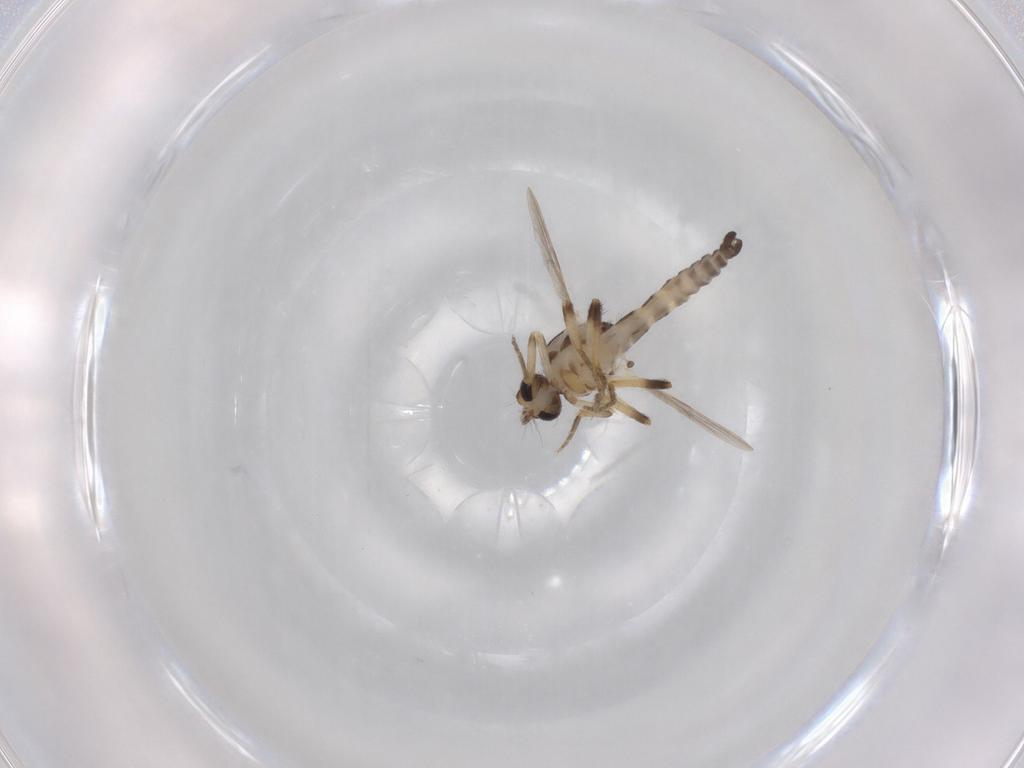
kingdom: Animalia
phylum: Arthropoda
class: Insecta
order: Diptera
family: Ceratopogonidae
